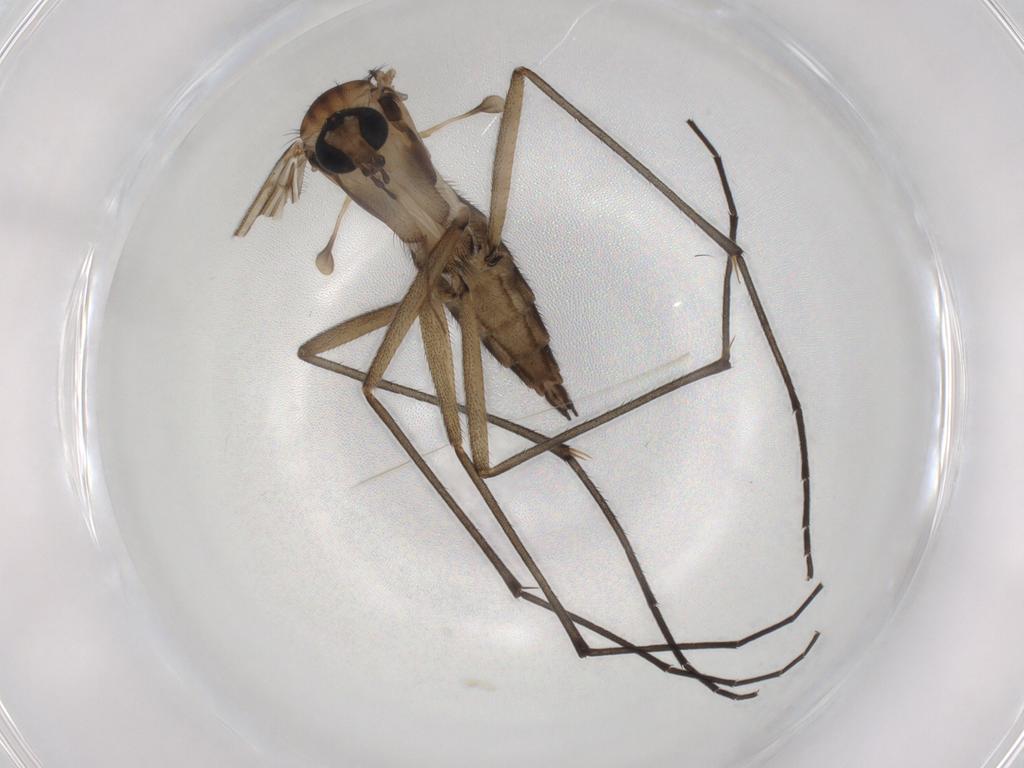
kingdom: Animalia
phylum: Arthropoda
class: Insecta
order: Diptera
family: Sciaridae
